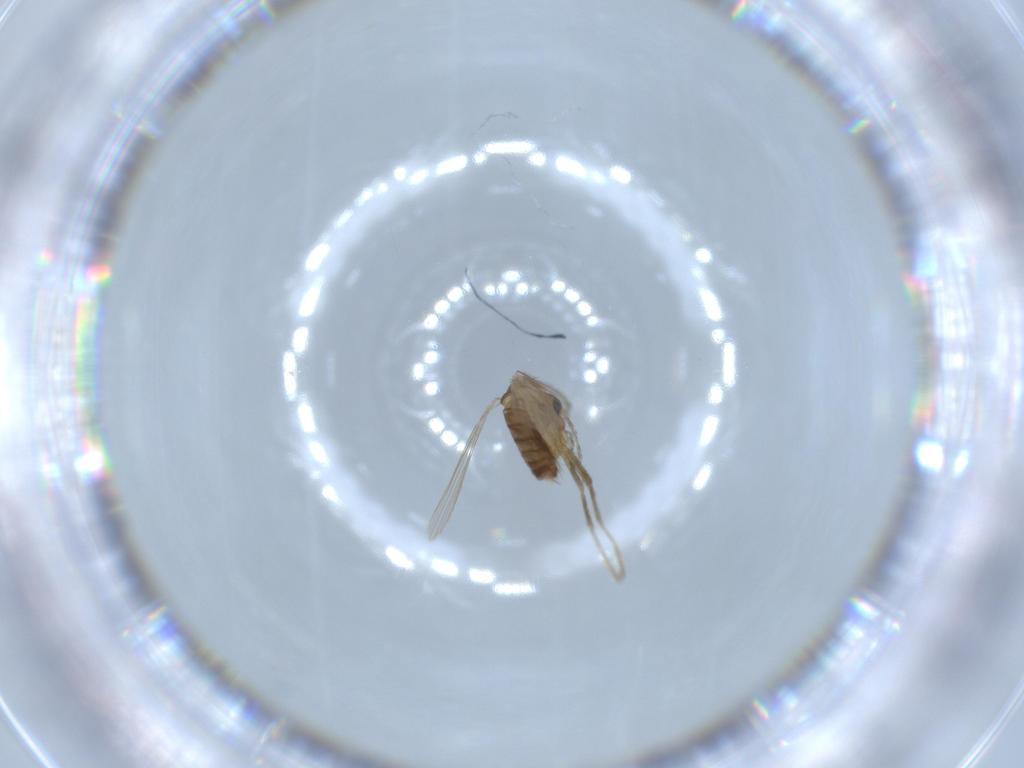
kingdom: Animalia
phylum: Arthropoda
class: Insecta
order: Diptera
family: Psychodidae
